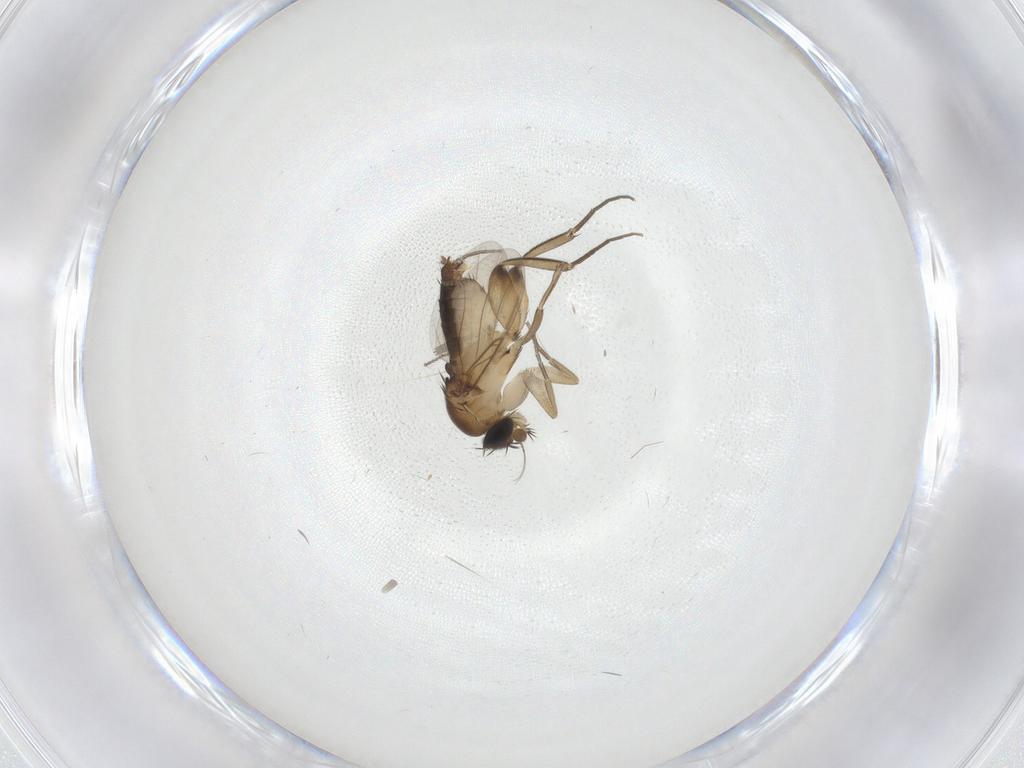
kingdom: Animalia
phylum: Arthropoda
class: Insecta
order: Diptera
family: Phoridae
